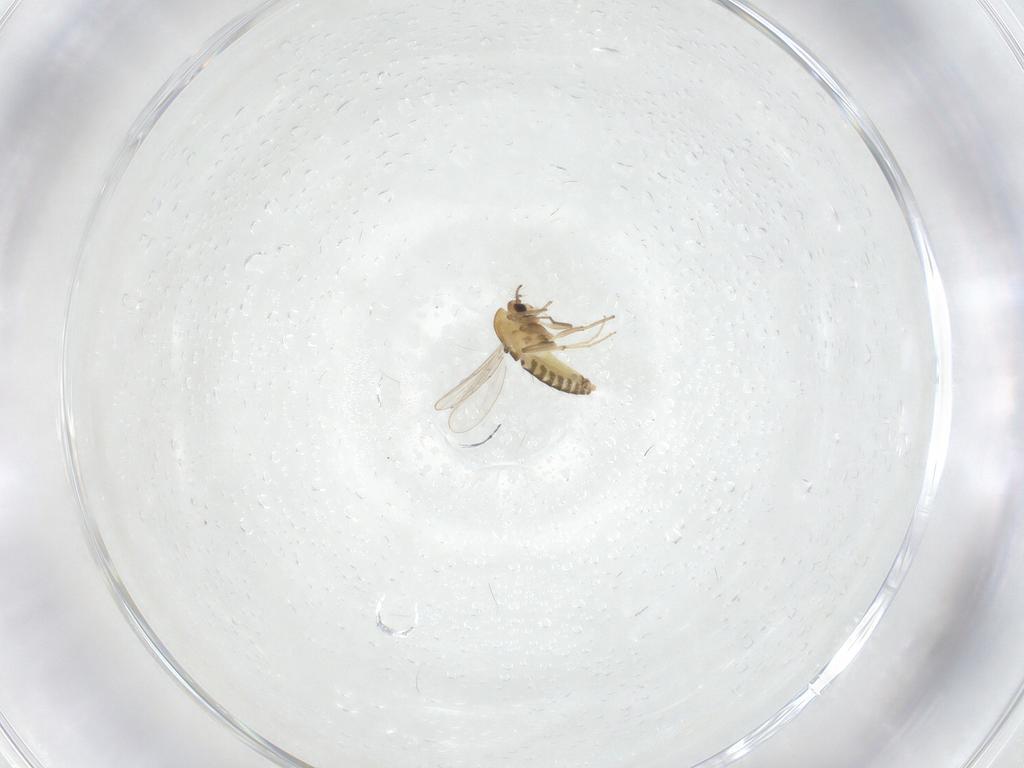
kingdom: Animalia
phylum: Arthropoda
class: Insecta
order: Diptera
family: Chironomidae
